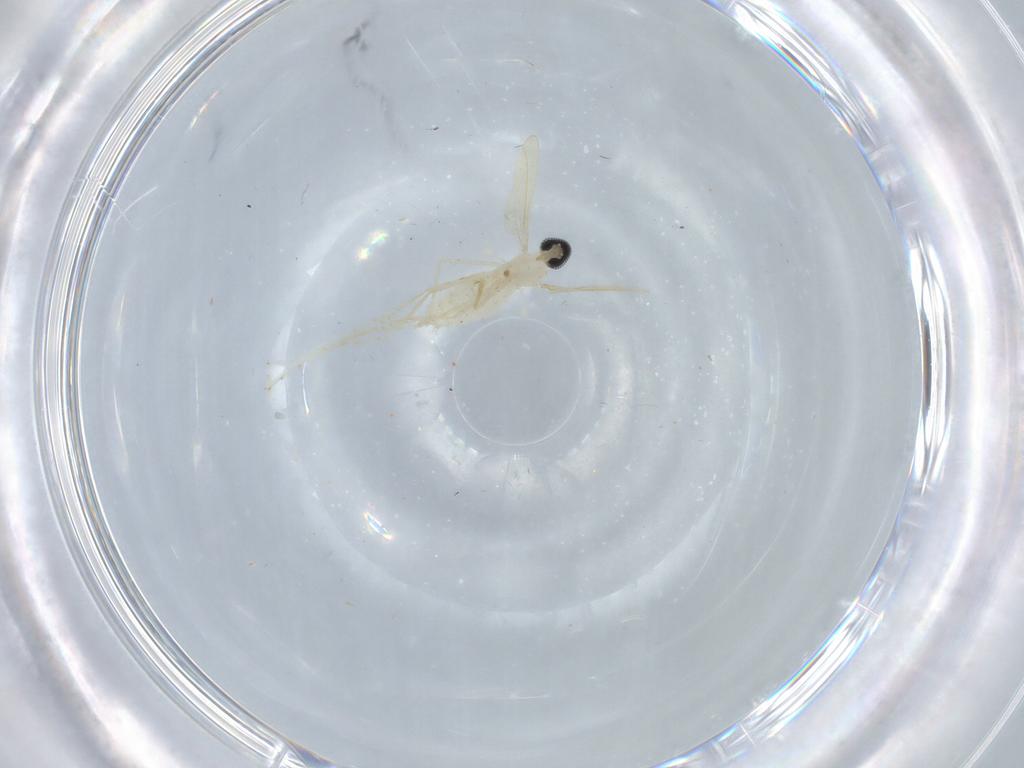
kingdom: Animalia
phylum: Arthropoda
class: Insecta
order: Diptera
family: Cecidomyiidae
